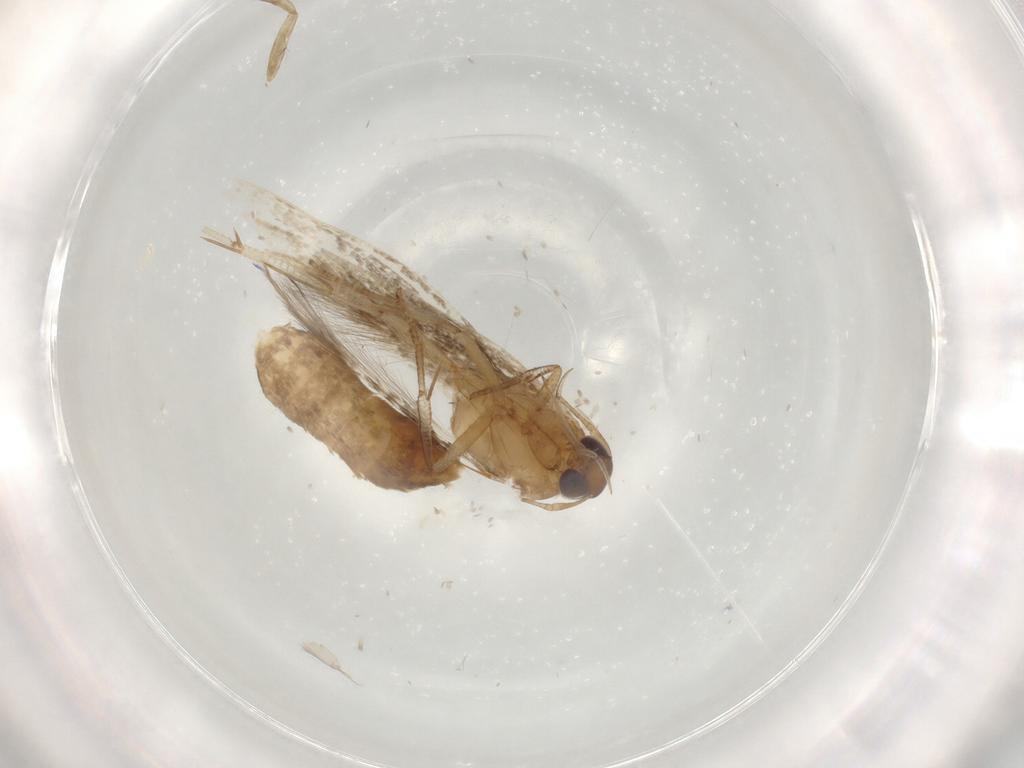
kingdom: Animalia
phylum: Arthropoda
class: Insecta
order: Lepidoptera
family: Cosmopterigidae
